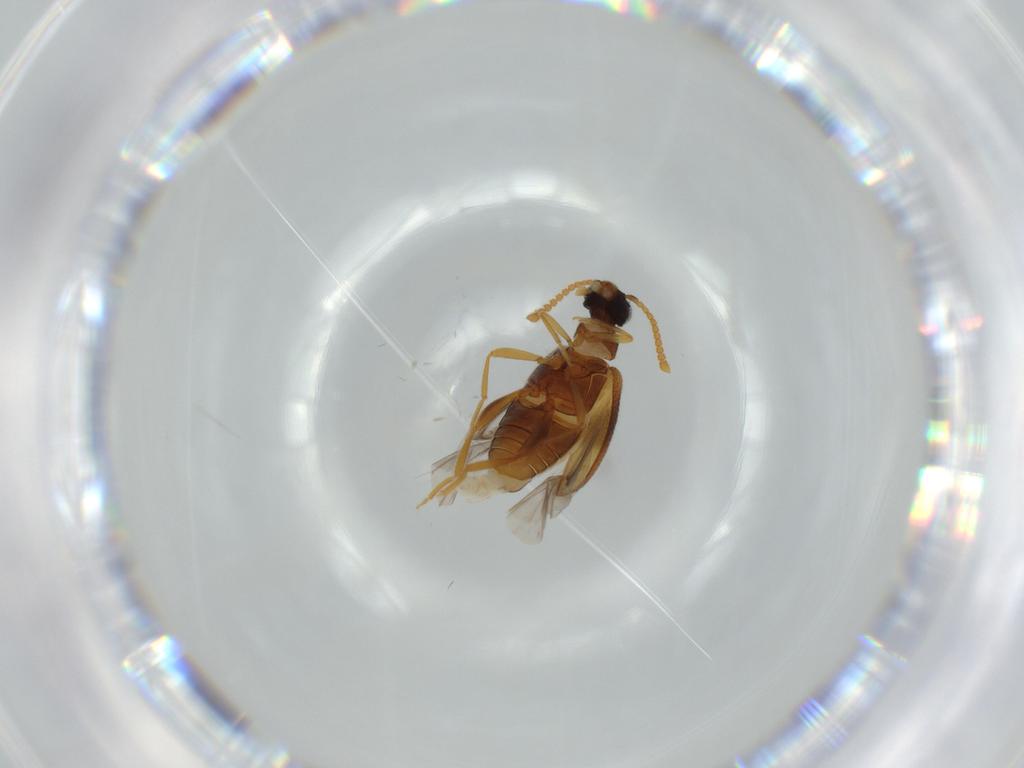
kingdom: Animalia
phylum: Arthropoda
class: Insecta
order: Coleoptera
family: Aderidae
